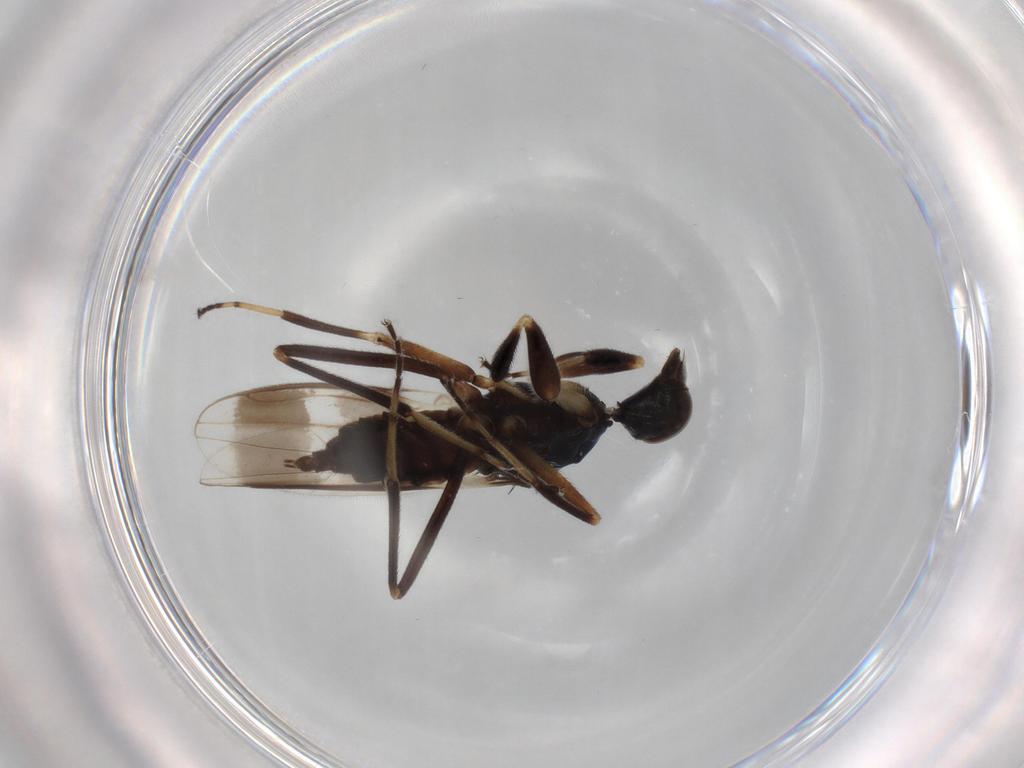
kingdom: Animalia
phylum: Arthropoda
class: Insecta
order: Diptera
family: Hybotidae
